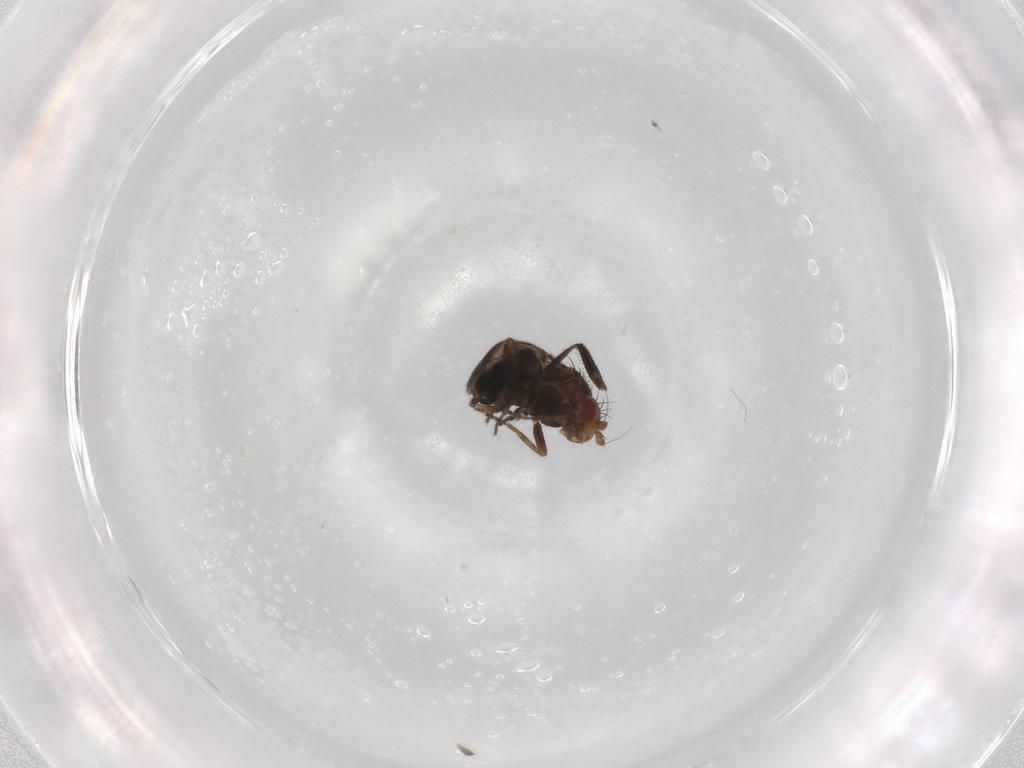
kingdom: Animalia
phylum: Arthropoda
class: Insecta
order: Diptera
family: Milichiidae
